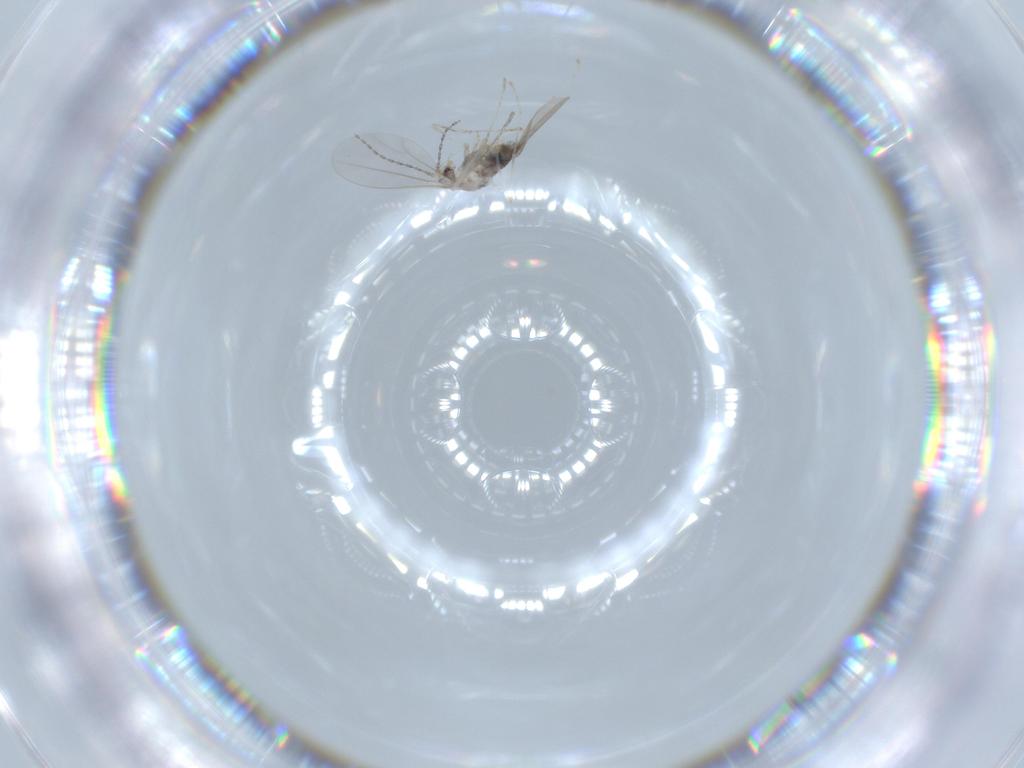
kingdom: Animalia
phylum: Arthropoda
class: Insecta
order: Diptera
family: Cecidomyiidae
